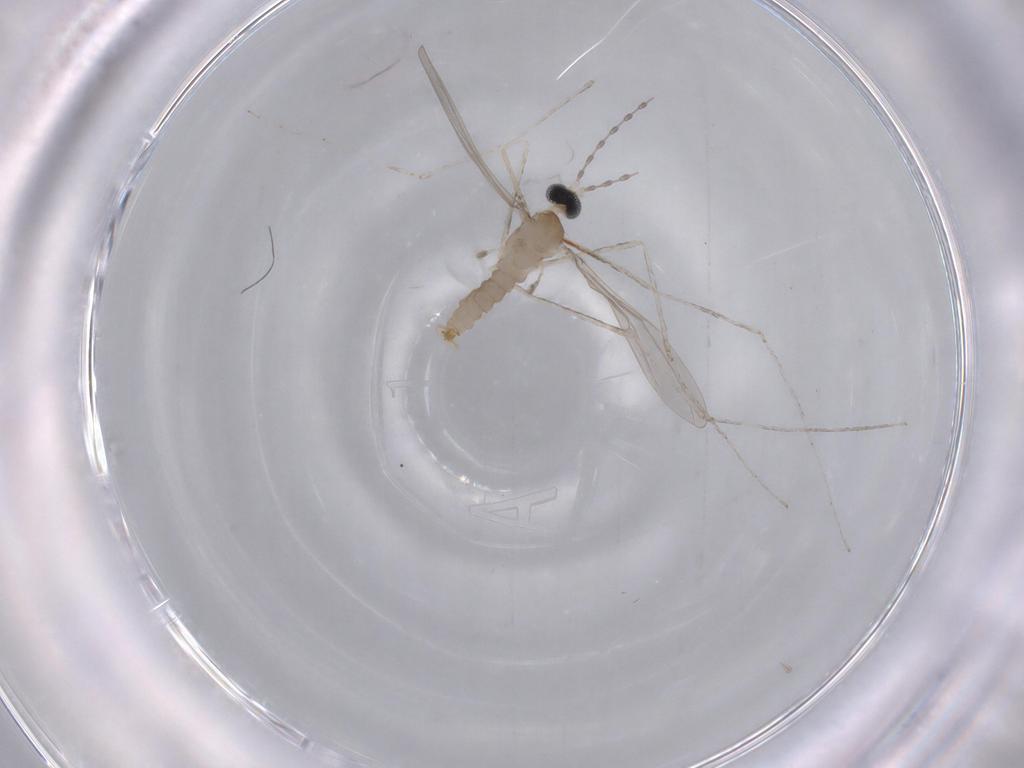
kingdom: Animalia
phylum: Arthropoda
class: Insecta
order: Diptera
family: Cecidomyiidae
